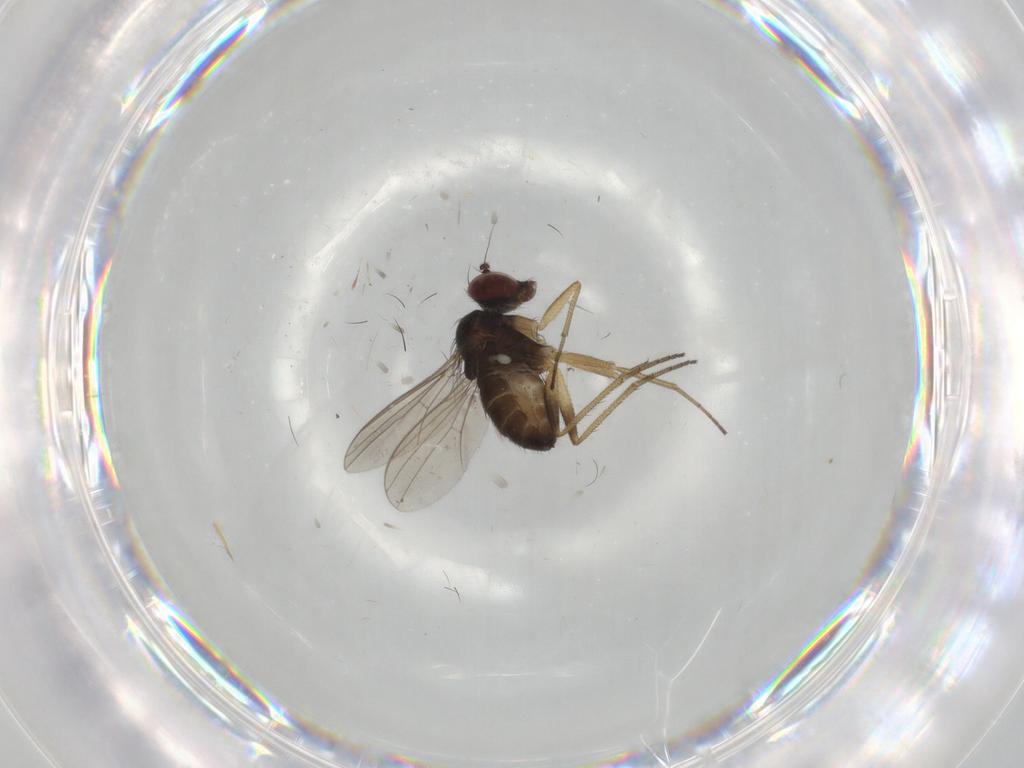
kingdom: Animalia
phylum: Arthropoda
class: Insecta
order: Diptera
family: Dolichopodidae
